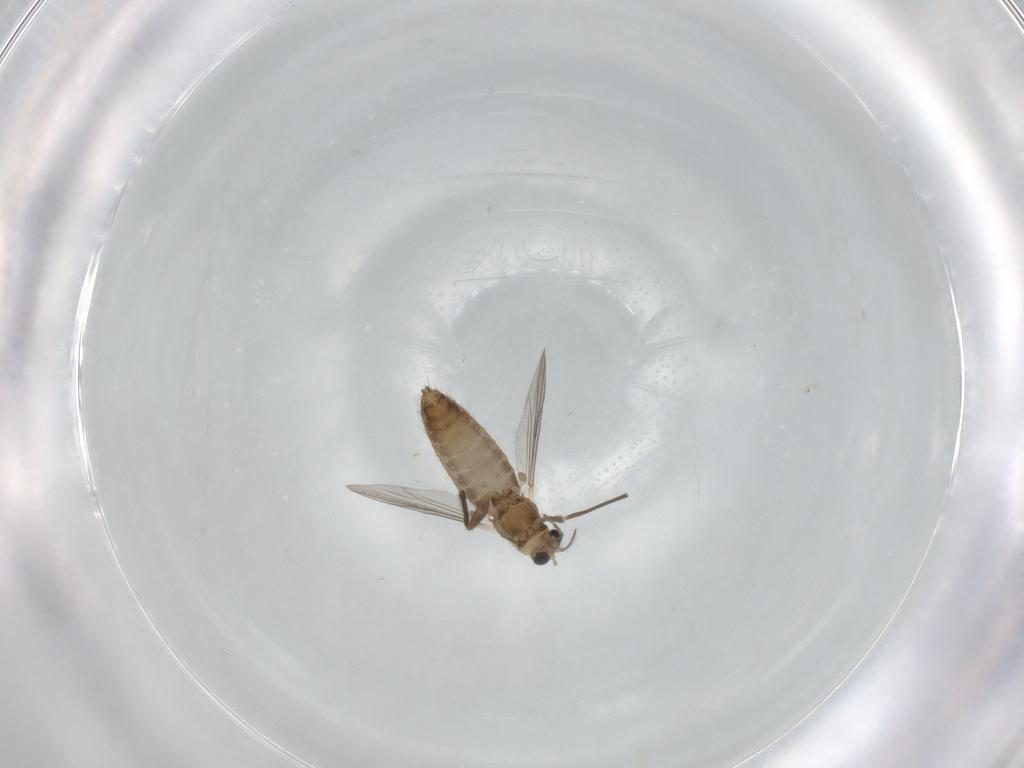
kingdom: Animalia
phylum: Arthropoda
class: Insecta
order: Diptera
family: Chironomidae
